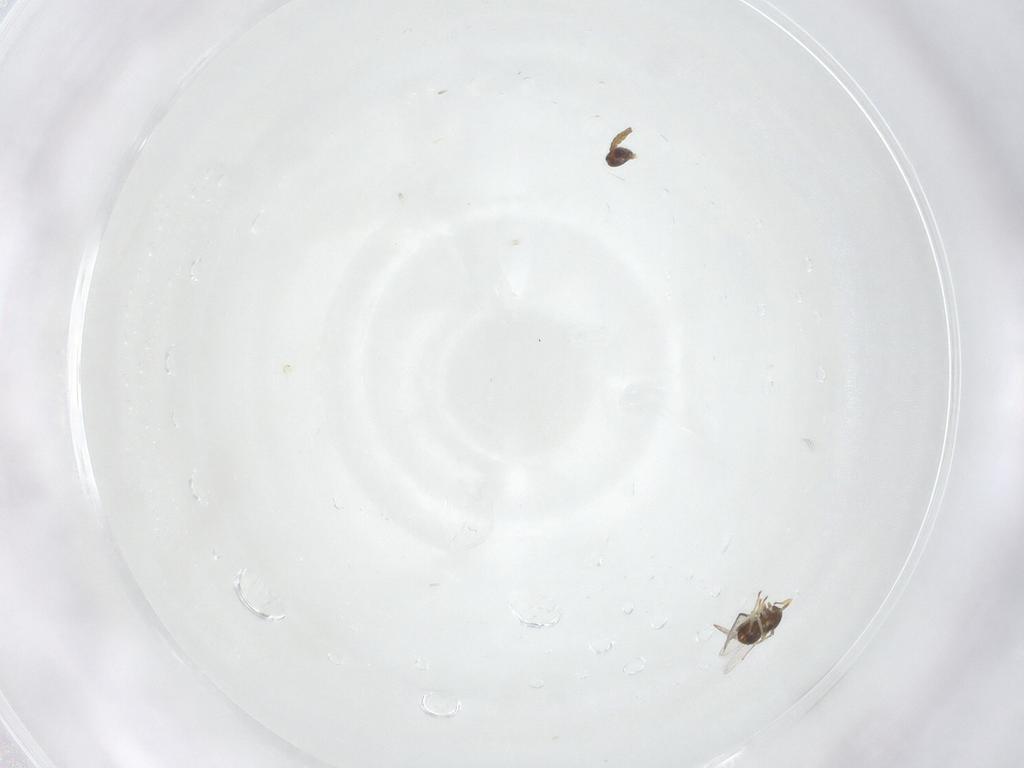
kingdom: Animalia
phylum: Arthropoda
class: Insecta
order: Hymenoptera
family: Aphelinidae
